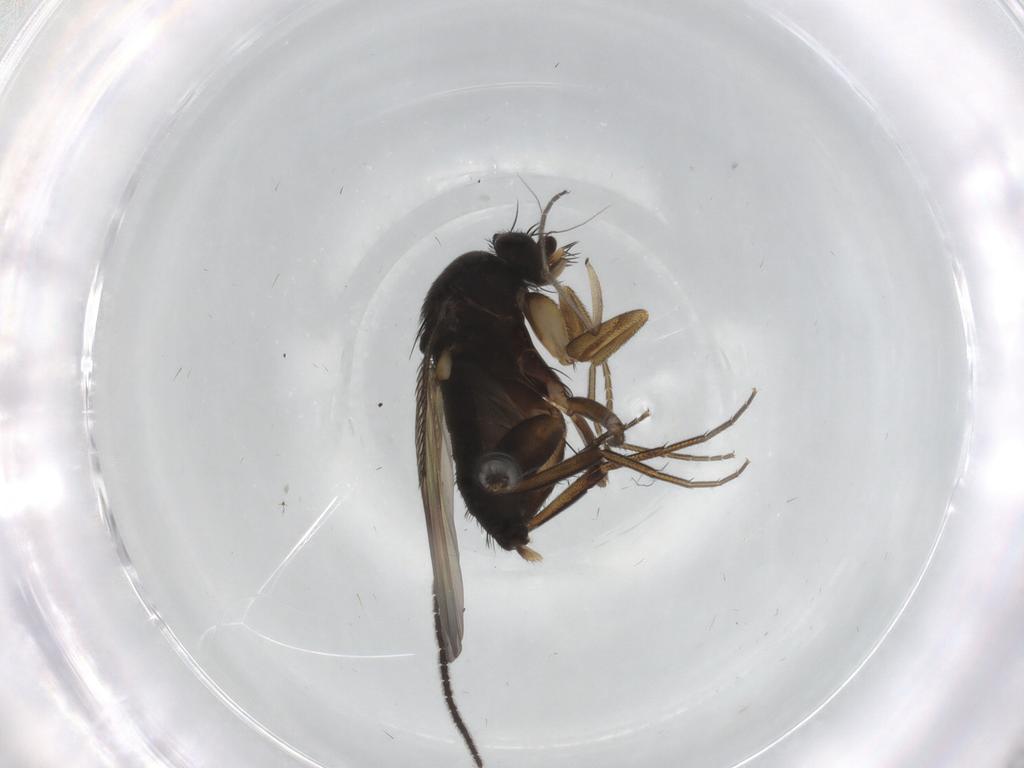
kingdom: Animalia
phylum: Arthropoda
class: Insecta
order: Diptera
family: Phoridae
